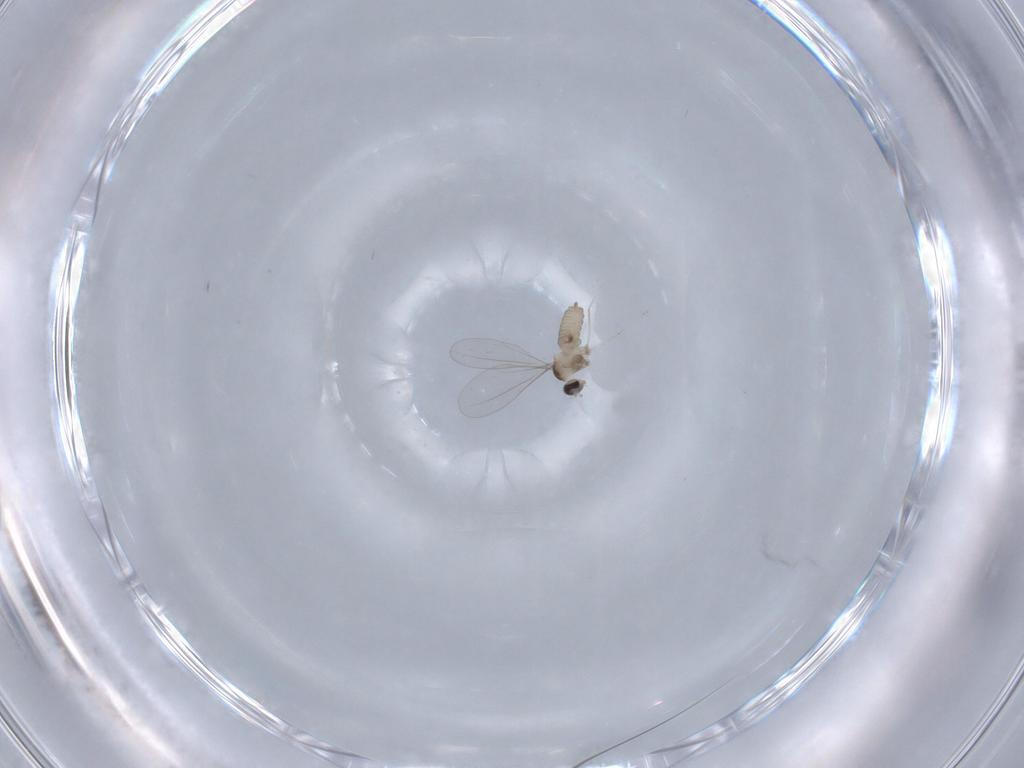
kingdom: Animalia
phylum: Arthropoda
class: Insecta
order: Diptera
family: Cecidomyiidae
